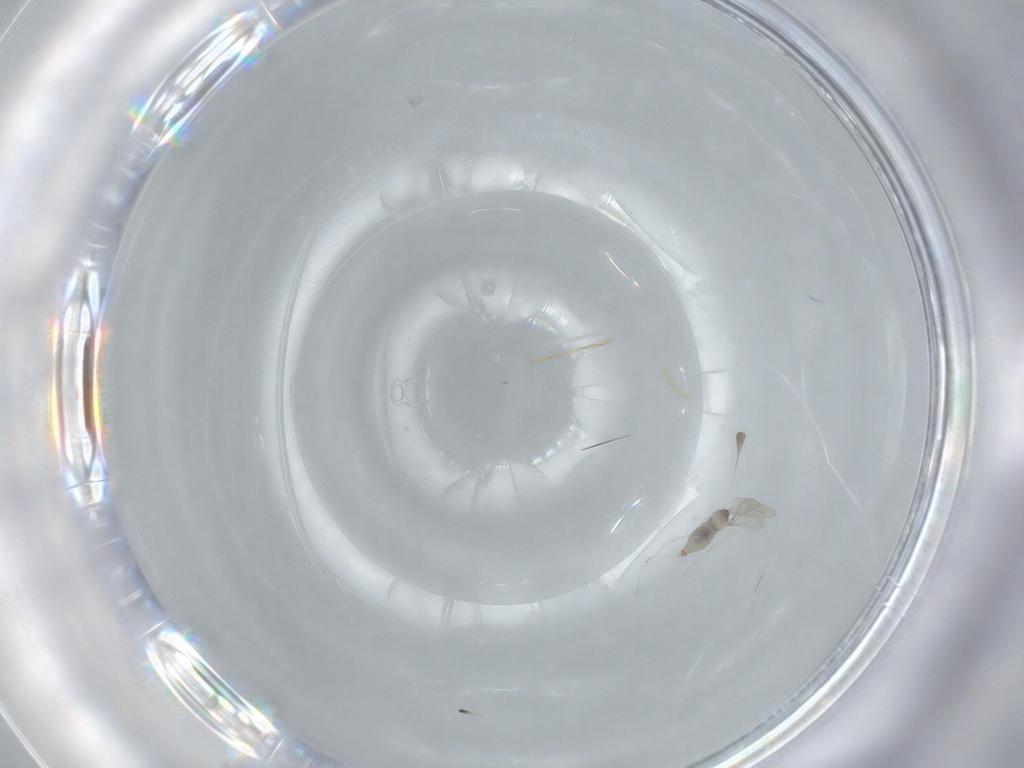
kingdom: Animalia
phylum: Arthropoda
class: Insecta
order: Diptera
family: Cecidomyiidae
